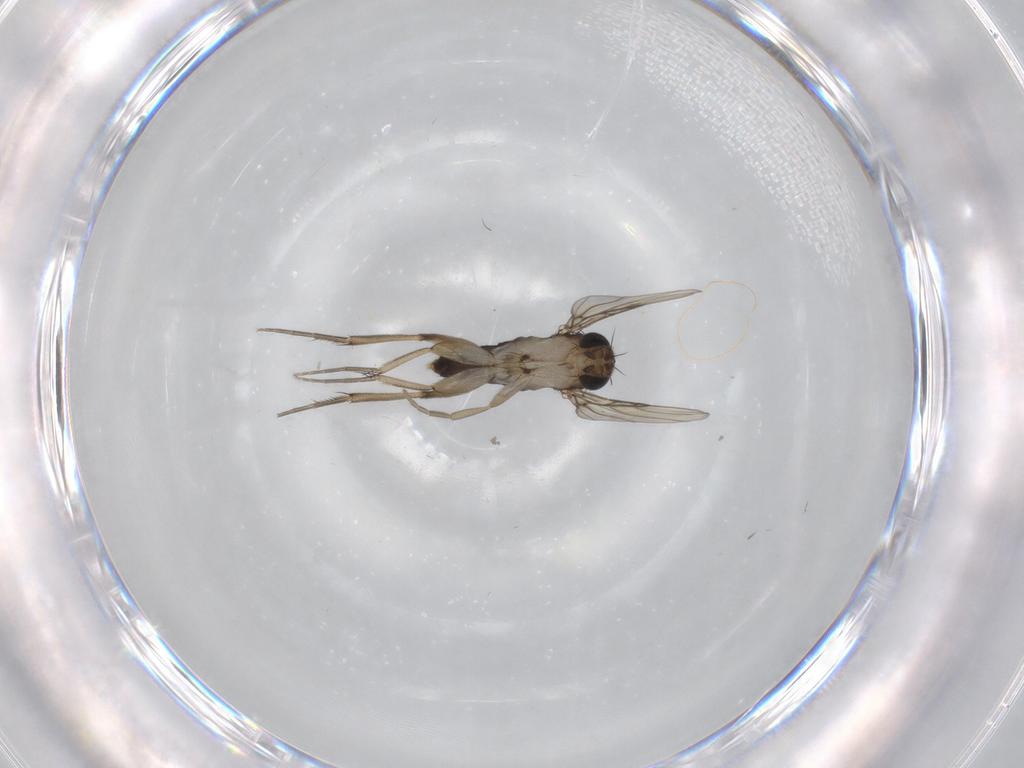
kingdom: Animalia
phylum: Arthropoda
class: Insecta
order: Diptera
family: Phoridae
